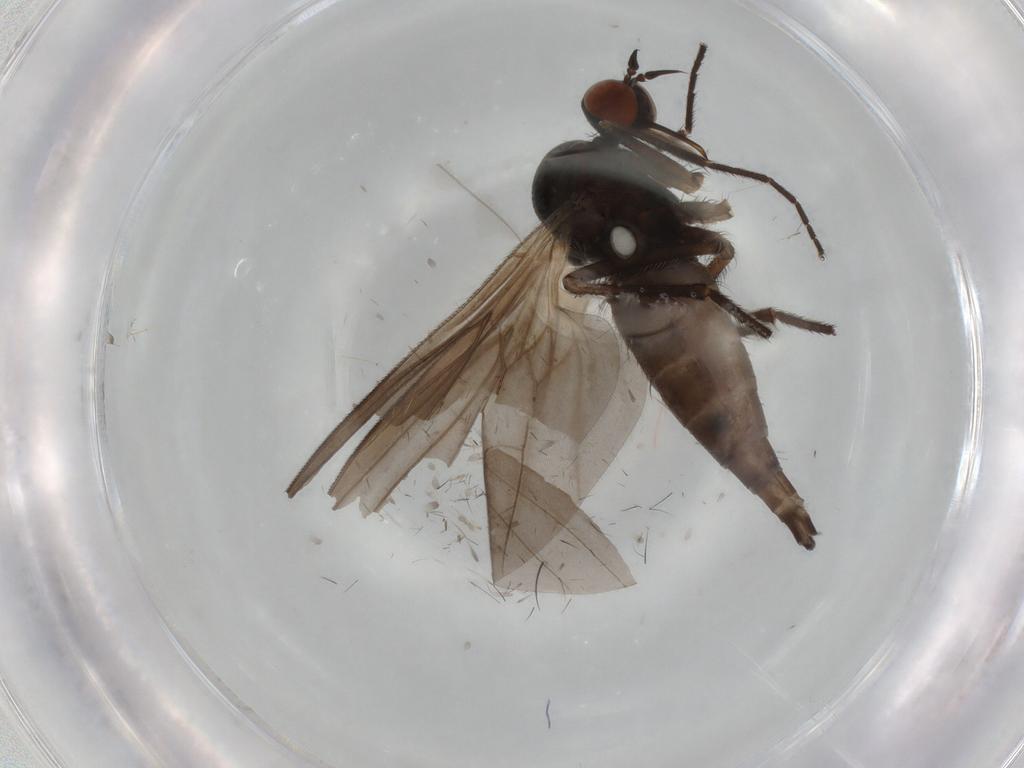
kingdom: Animalia
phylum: Arthropoda
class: Insecta
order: Diptera
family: Empididae
